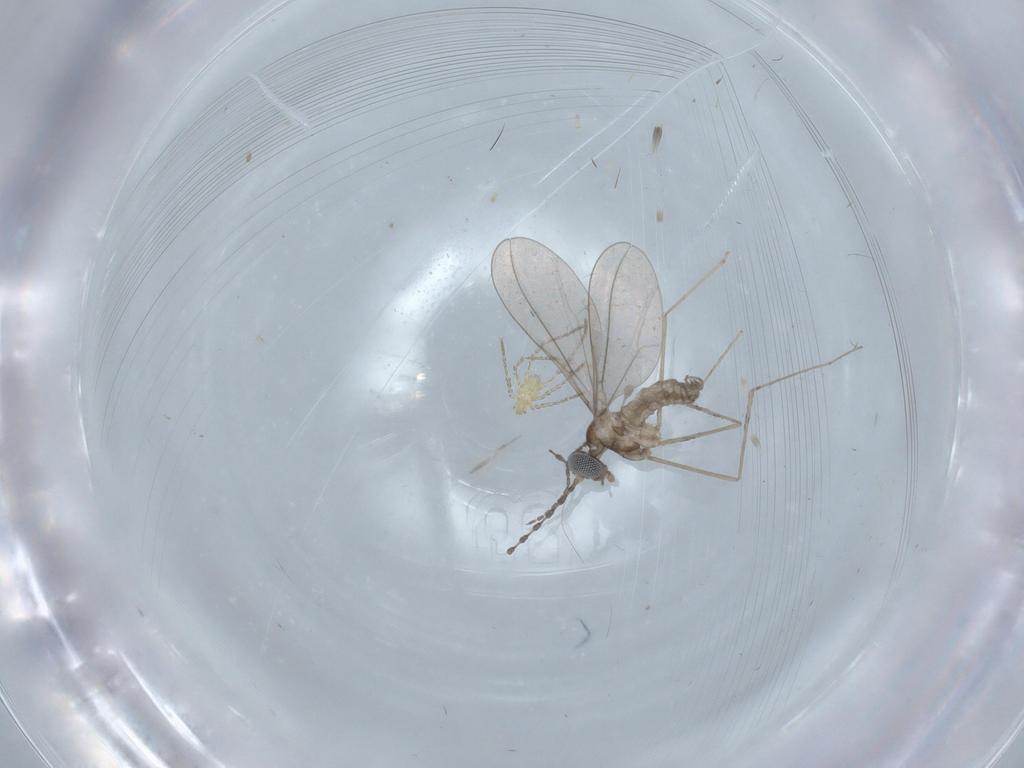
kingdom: Animalia
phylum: Arthropoda
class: Insecta
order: Diptera
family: Cecidomyiidae
